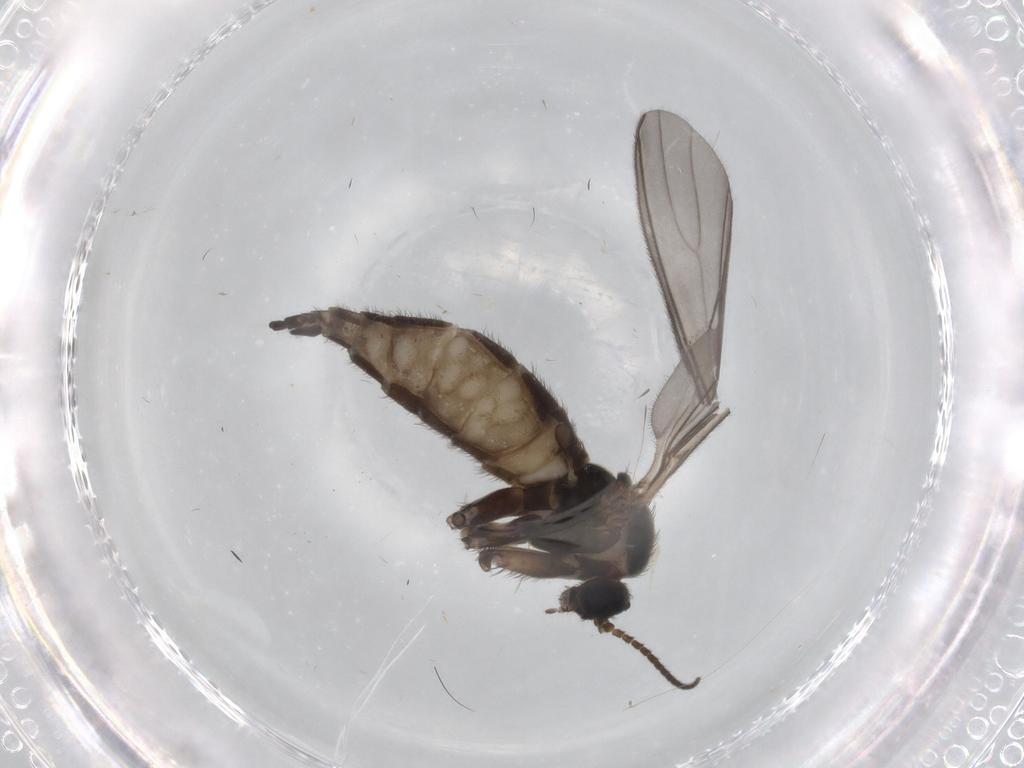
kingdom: Animalia
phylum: Arthropoda
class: Insecta
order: Diptera
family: Sciaridae
